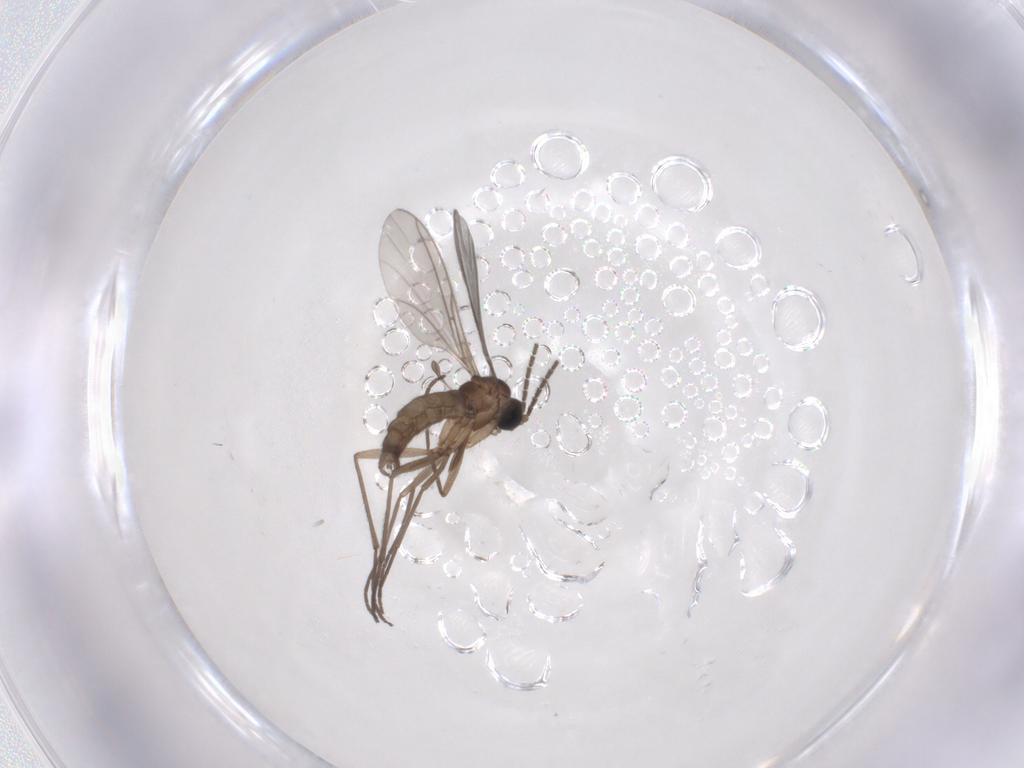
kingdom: Animalia
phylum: Arthropoda
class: Insecta
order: Diptera
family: Sciaridae
